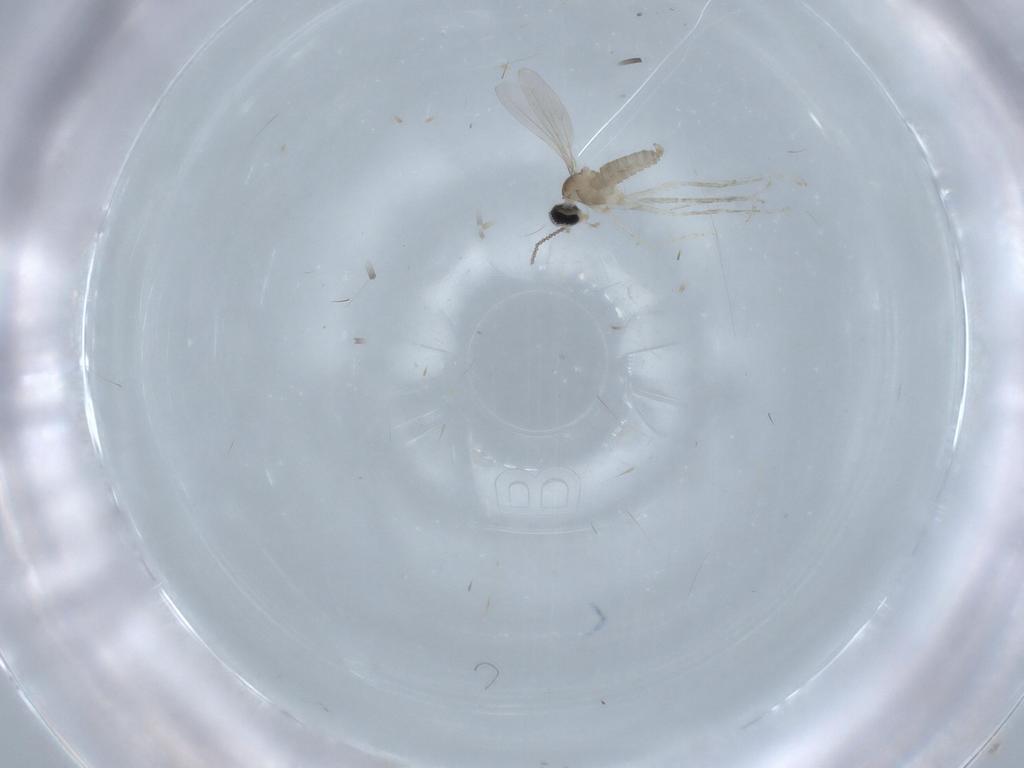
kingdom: Animalia
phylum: Arthropoda
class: Insecta
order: Diptera
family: Cecidomyiidae
